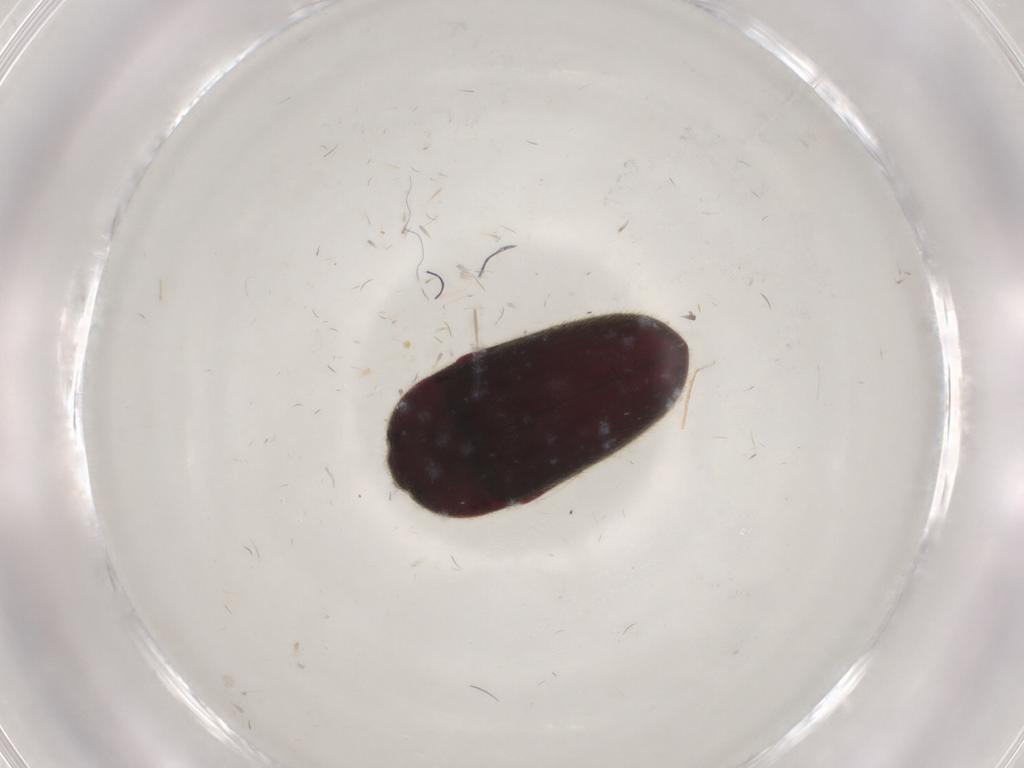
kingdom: Animalia
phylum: Arthropoda
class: Insecta
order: Coleoptera
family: Throscidae
